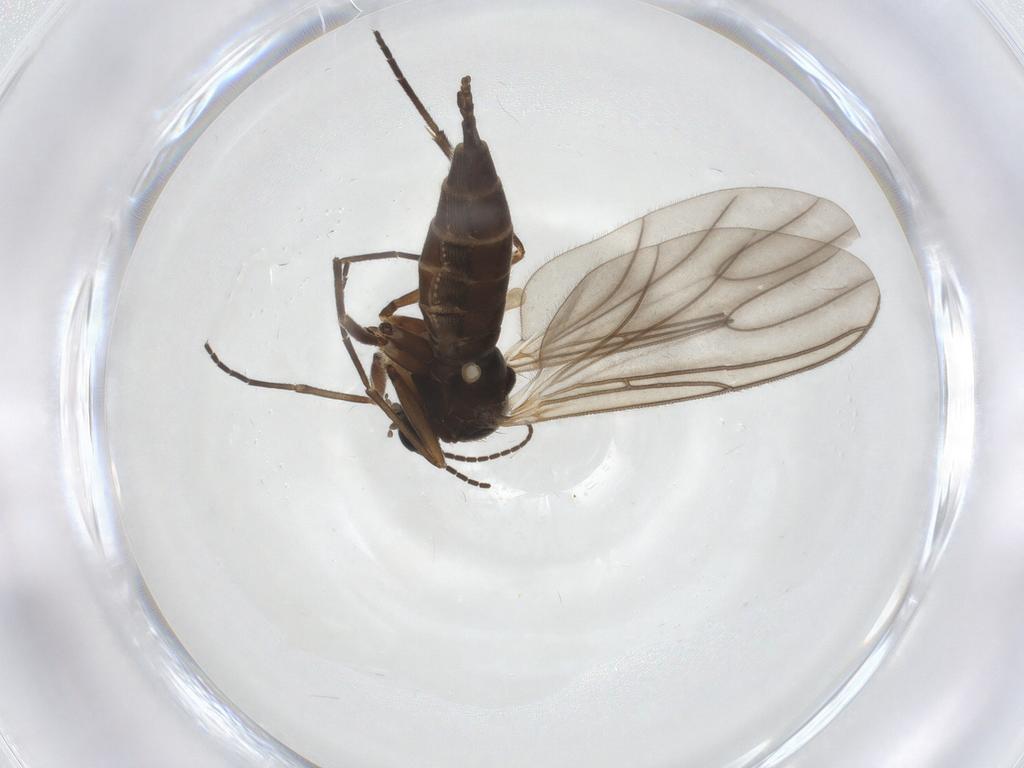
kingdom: Animalia
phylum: Arthropoda
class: Insecta
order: Diptera
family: Sciaridae
